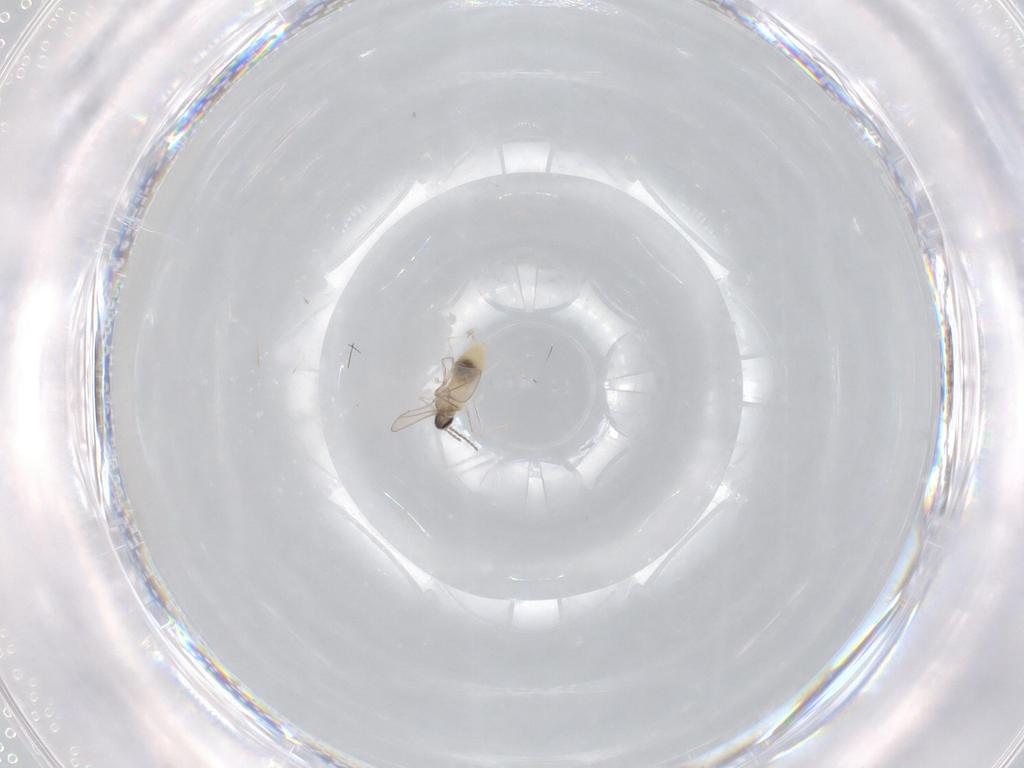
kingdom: Animalia
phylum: Arthropoda
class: Insecta
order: Diptera
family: Cecidomyiidae
